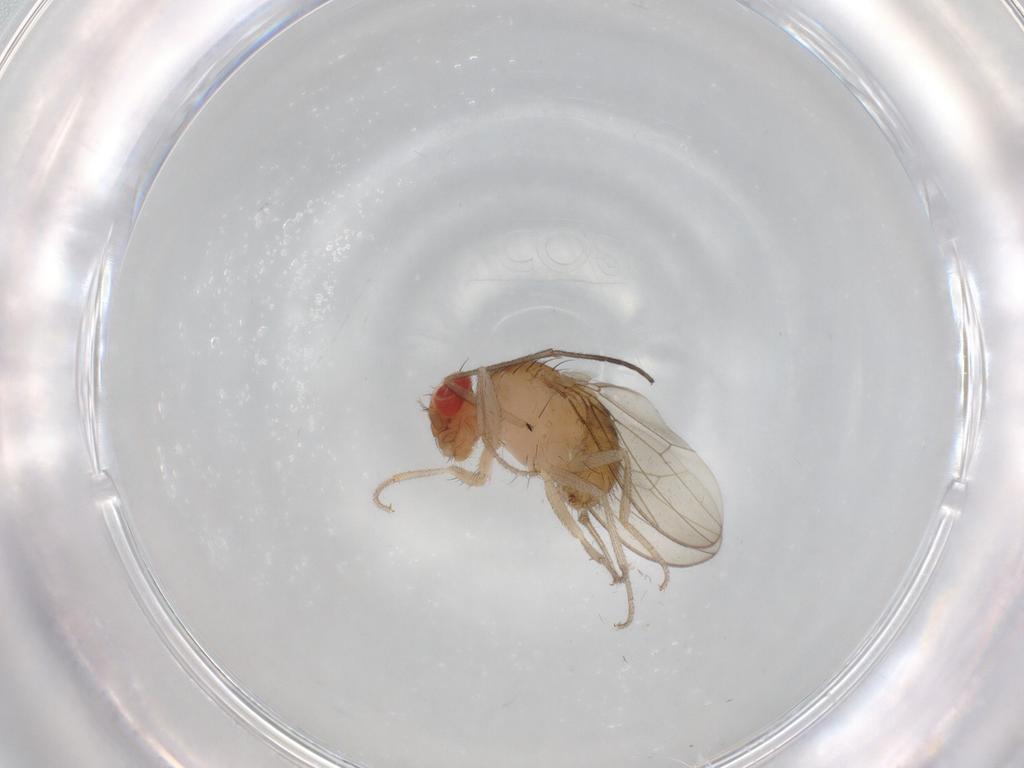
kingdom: Animalia
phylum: Arthropoda
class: Insecta
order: Diptera
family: Drosophilidae
